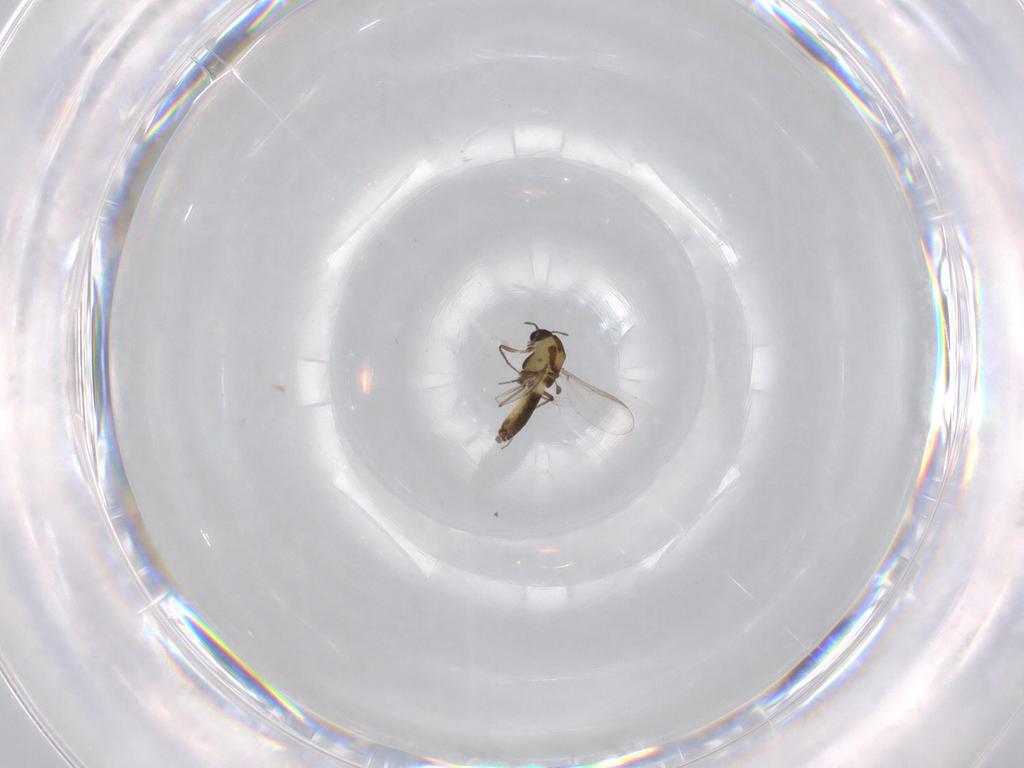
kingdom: Animalia
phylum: Arthropoda
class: Insecta
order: Diptera
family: Chironomidae
